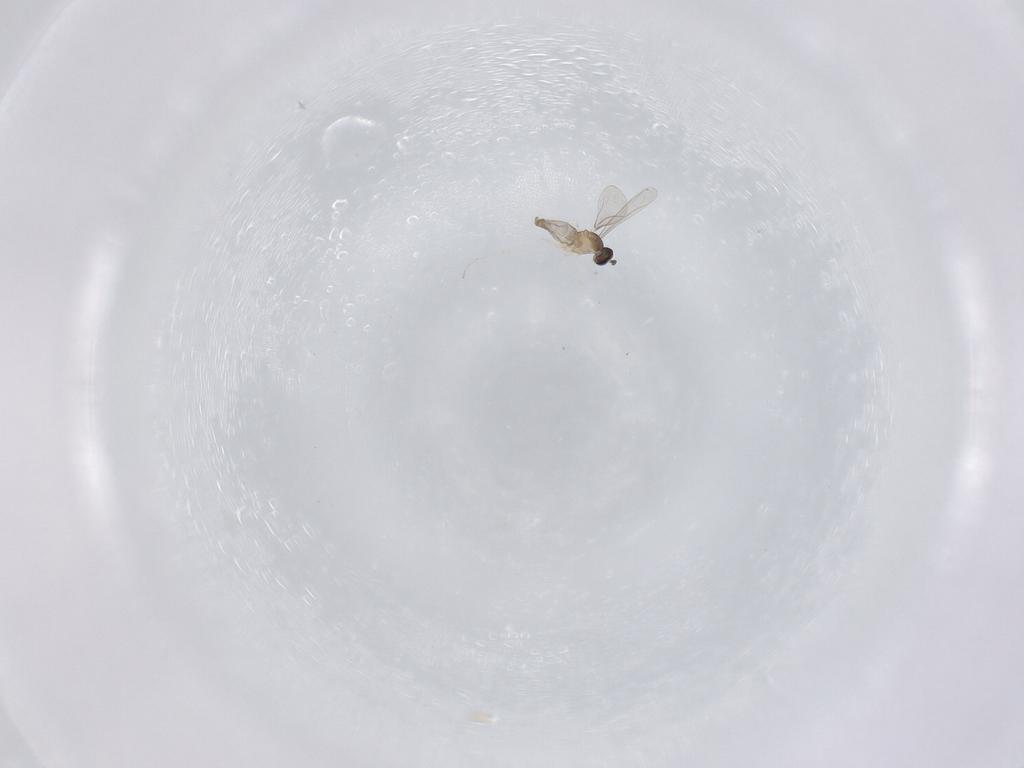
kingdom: Animalia
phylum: Arthropoda
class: Insecta
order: Diptera
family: Cecidomyiidae
